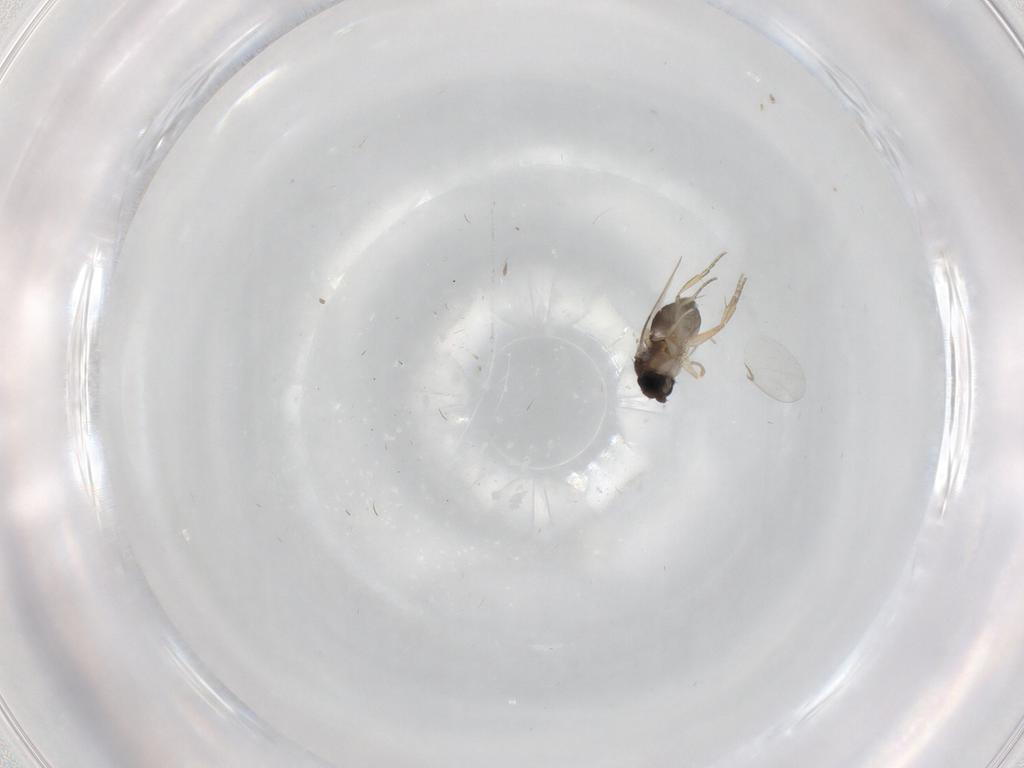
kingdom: Animalia
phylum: Arthropoda
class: Insecta
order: Diptera
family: Phoridae
